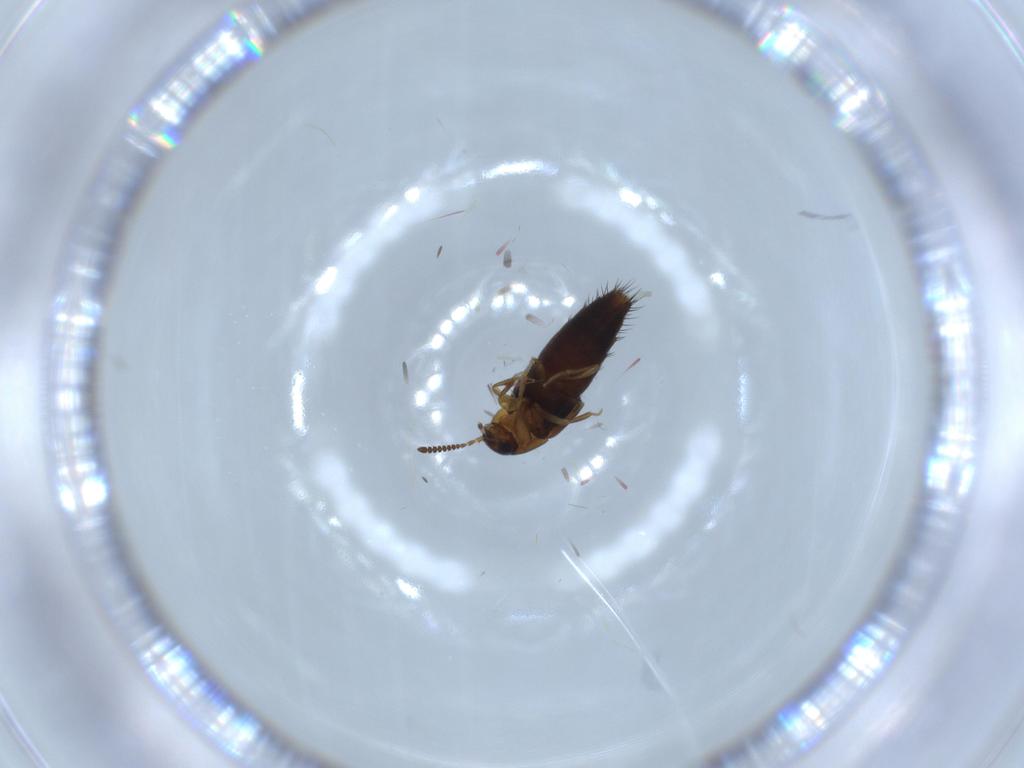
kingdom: Animalia
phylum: Arthropoda
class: Insecta
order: Coleoptera
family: Staphylinidae
